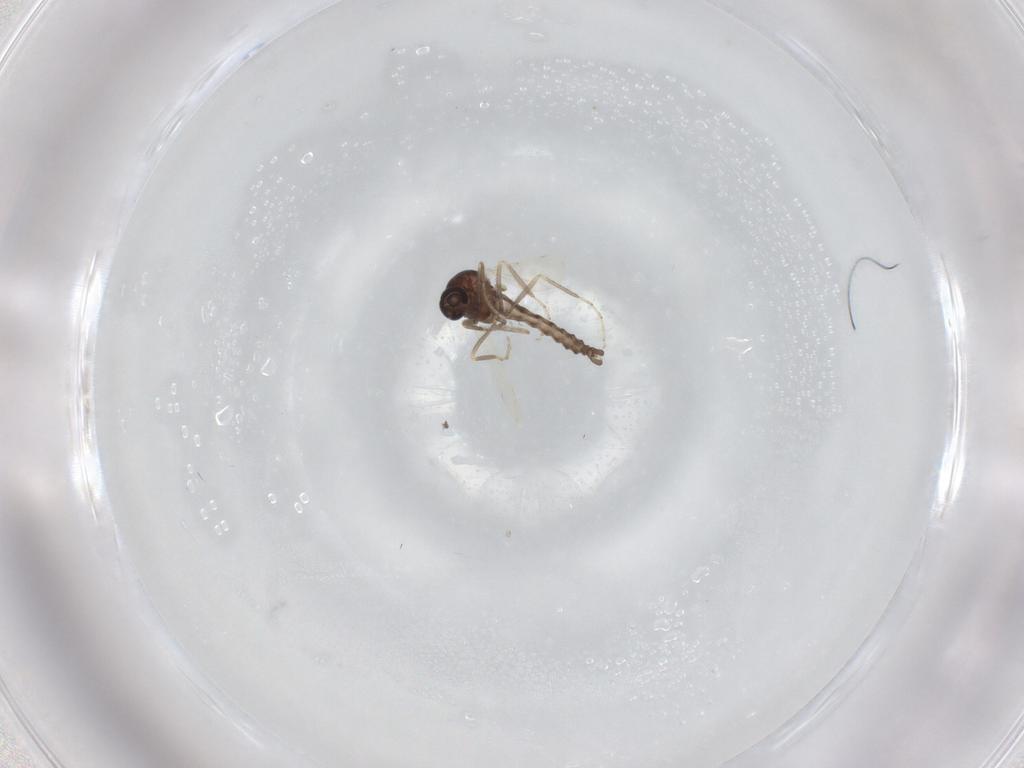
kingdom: Animalia
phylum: Arthropoda
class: Insecta
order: Diptera
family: Ceratopogonidae
